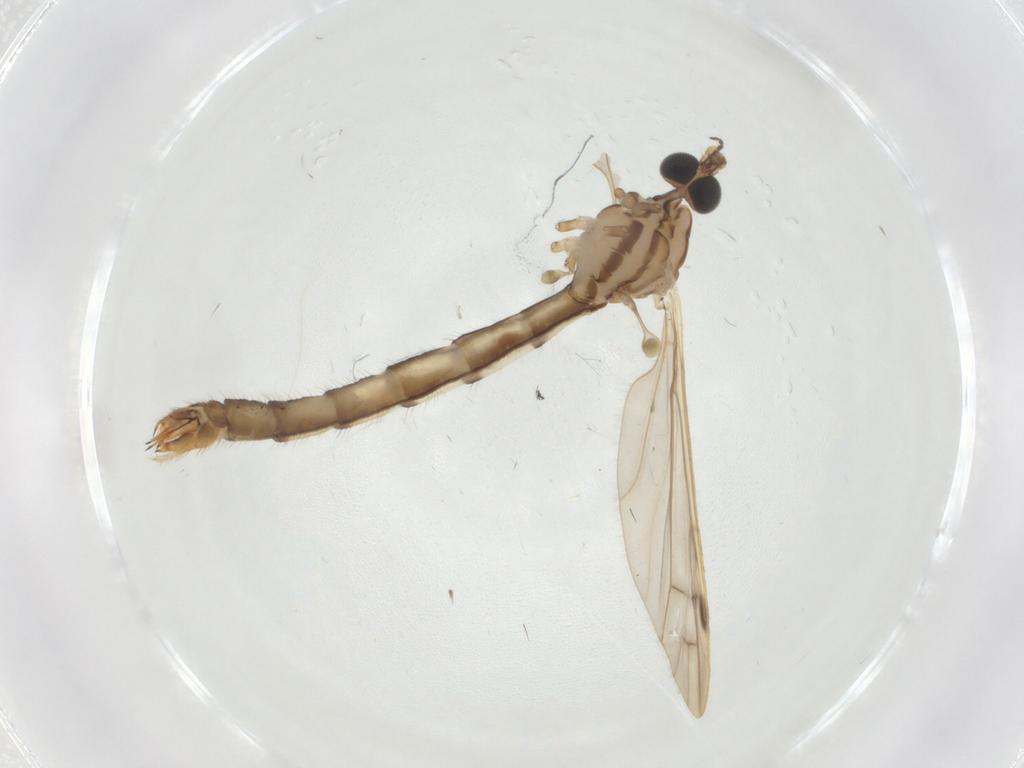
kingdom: Animalia
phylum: Arthropoda
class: Insecta
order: Diptera
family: Limoniidae
